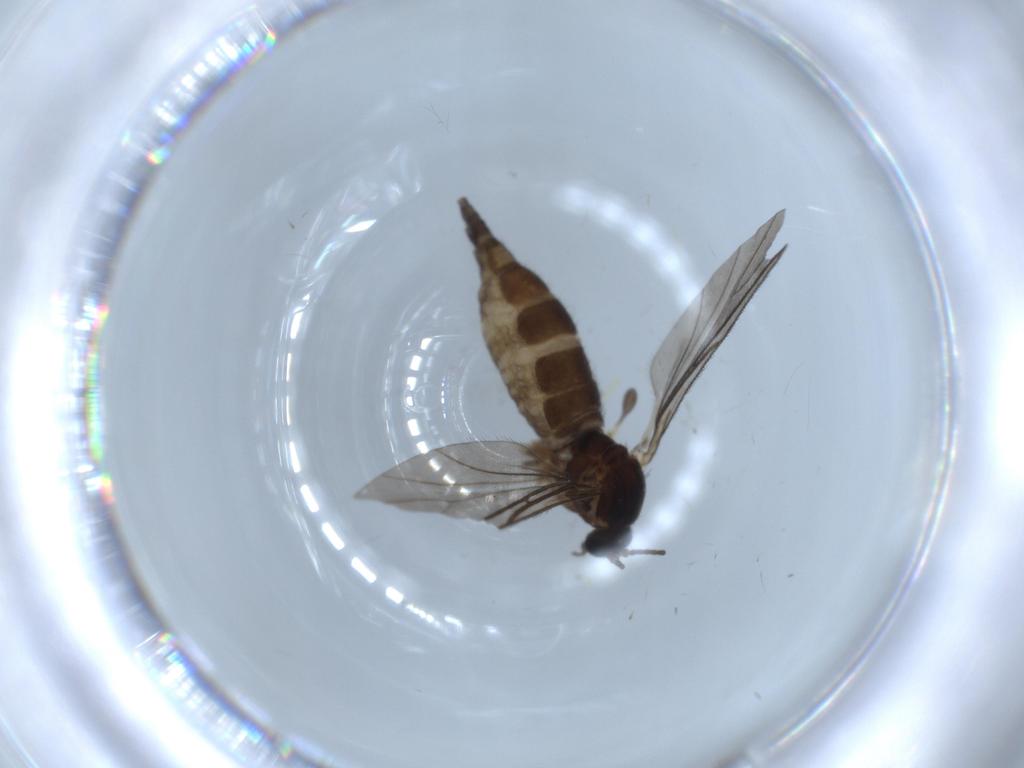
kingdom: Animalia
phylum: Arthropoda
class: Insecta
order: Diptera
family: Sciaridae
